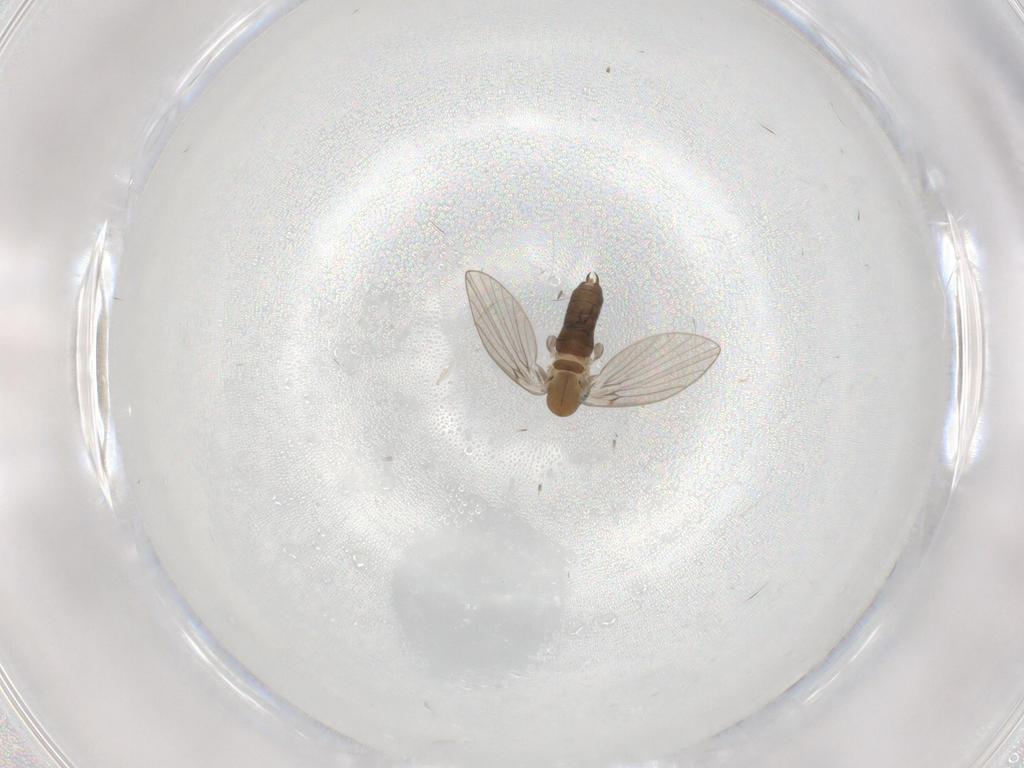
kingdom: Animalia
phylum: Arthropoda
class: Insecta
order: Diptera
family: Psychodidae
